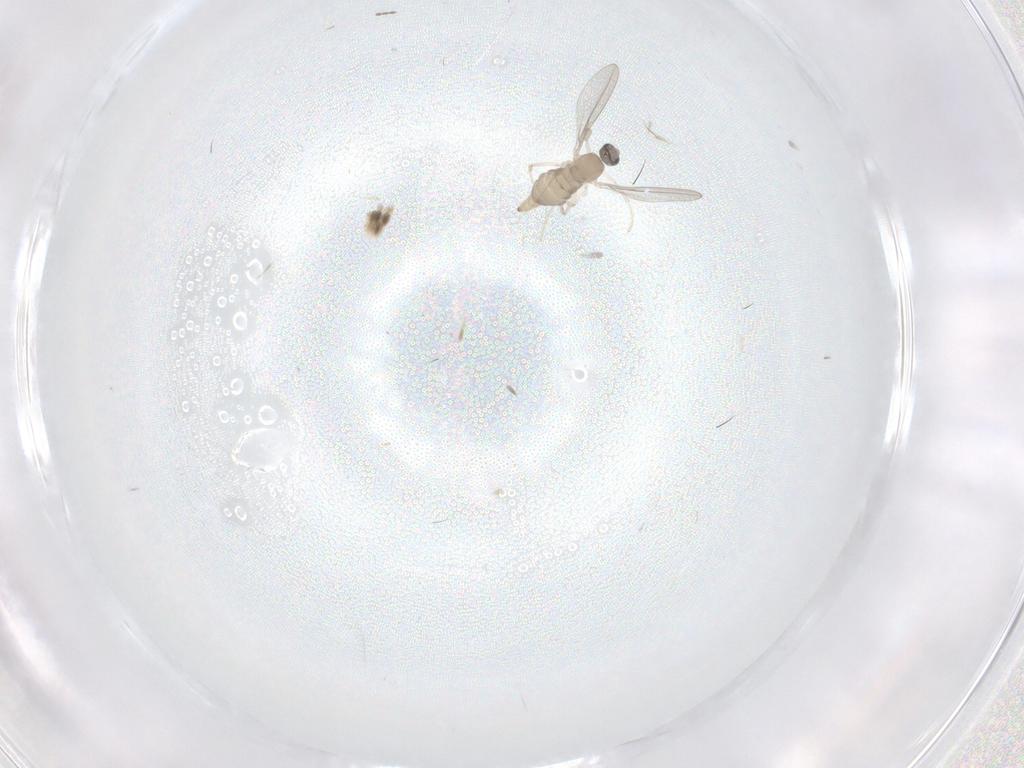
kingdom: Animalia
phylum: Arthropoda
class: Insecta
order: Diptera
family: Cecidomyiidae
